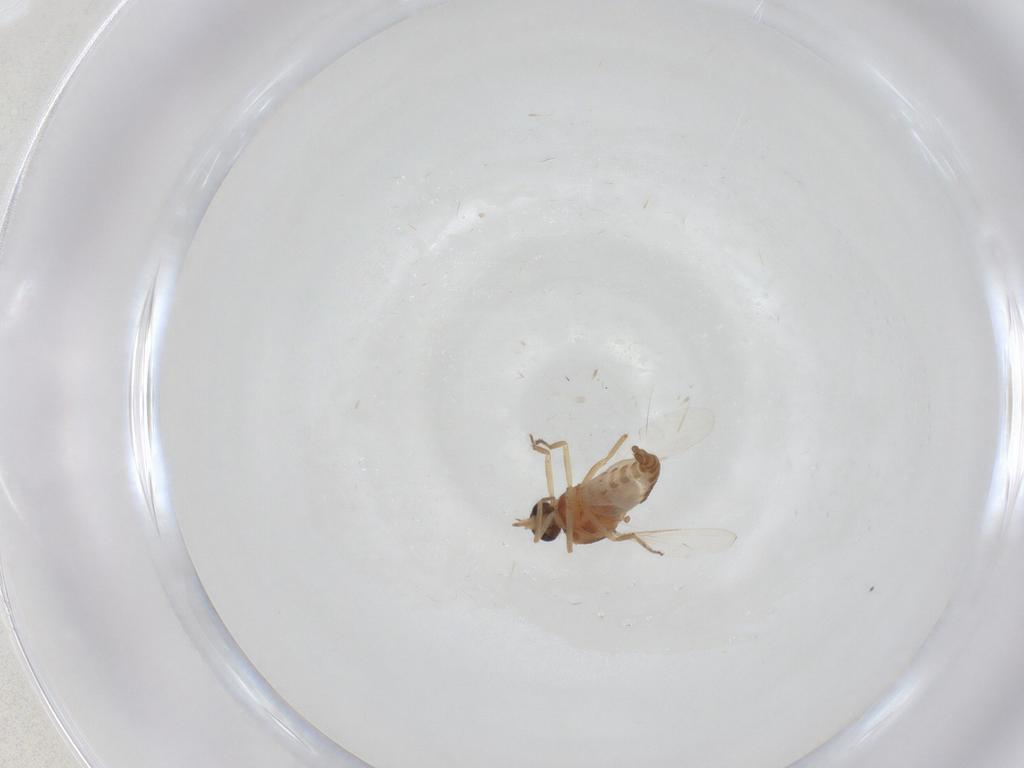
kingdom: Animalia
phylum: Arthropoda
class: Insecta
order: Diptera
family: Ceratopogonidae
